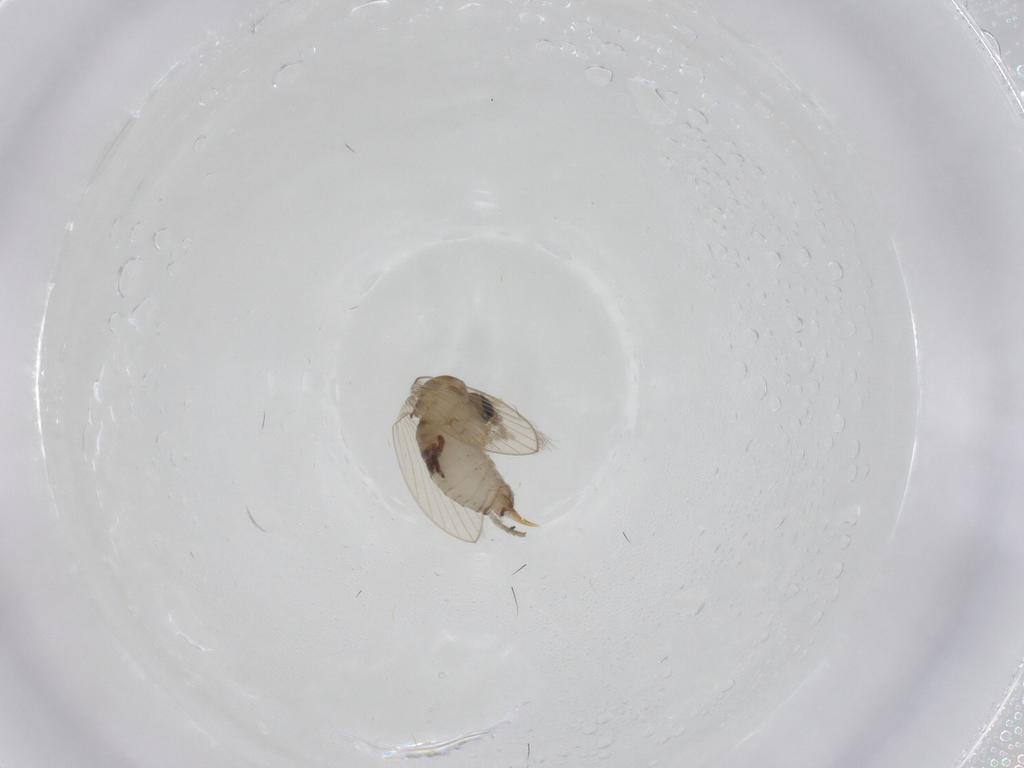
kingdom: Animalia
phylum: Arthropoda
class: Insecta
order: Diptera
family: Psychodidae
